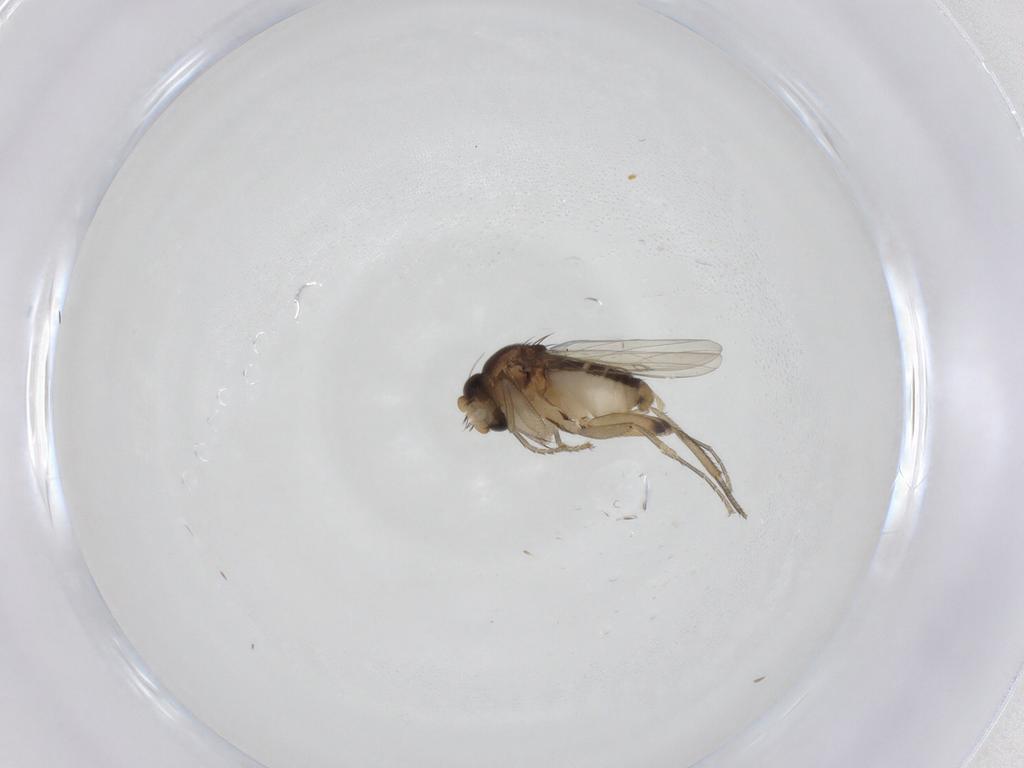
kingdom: Animalia
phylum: Arthropoda
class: Insecta
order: Diptera
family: Phoridae
